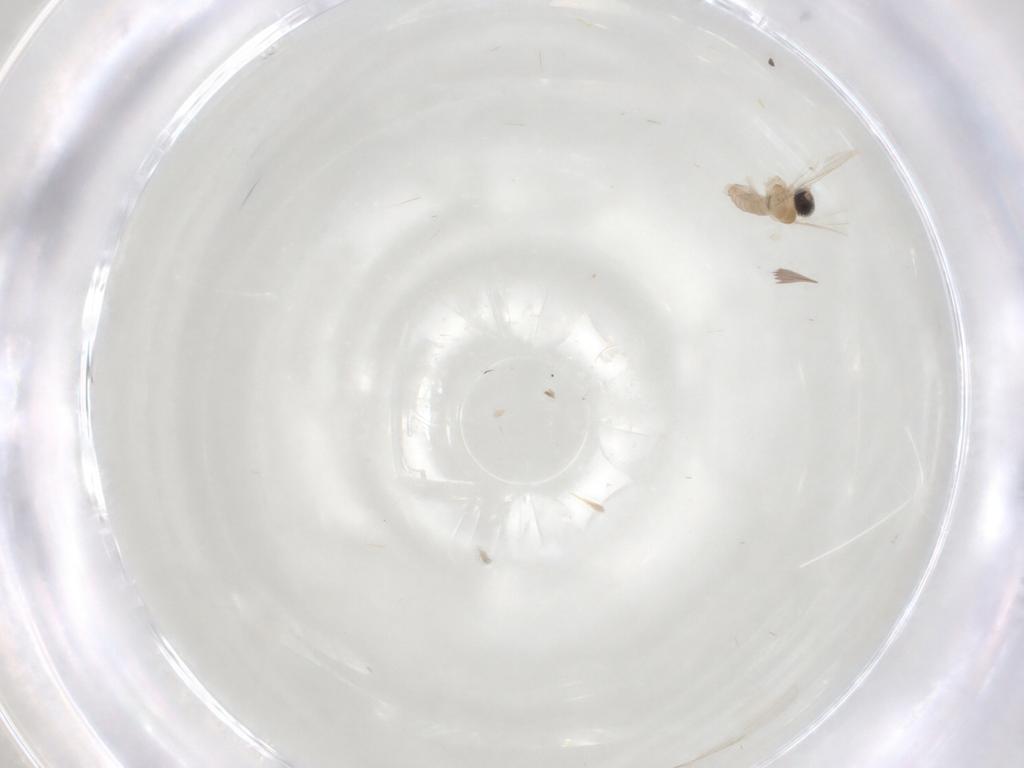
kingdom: Animalia
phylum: Arthropoda
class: Insecta
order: Diptera
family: Cecidomyiidae
